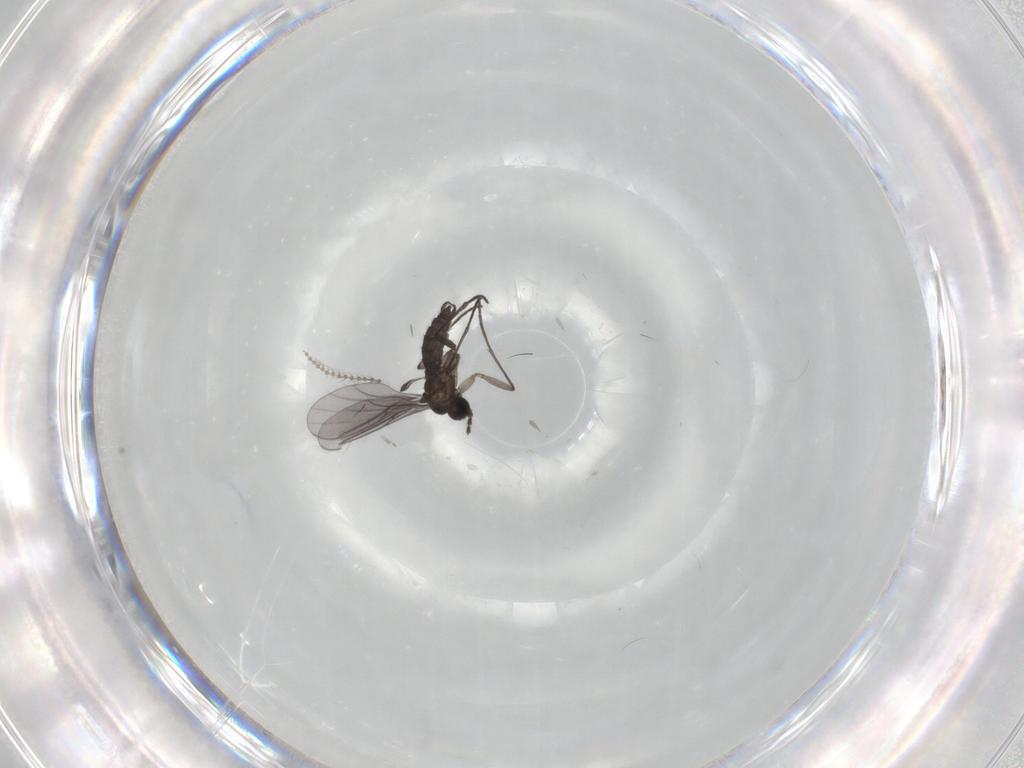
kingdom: Animalia
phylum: Arthropoda
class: Insecta
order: Diptera
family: Cecidomyiidae
